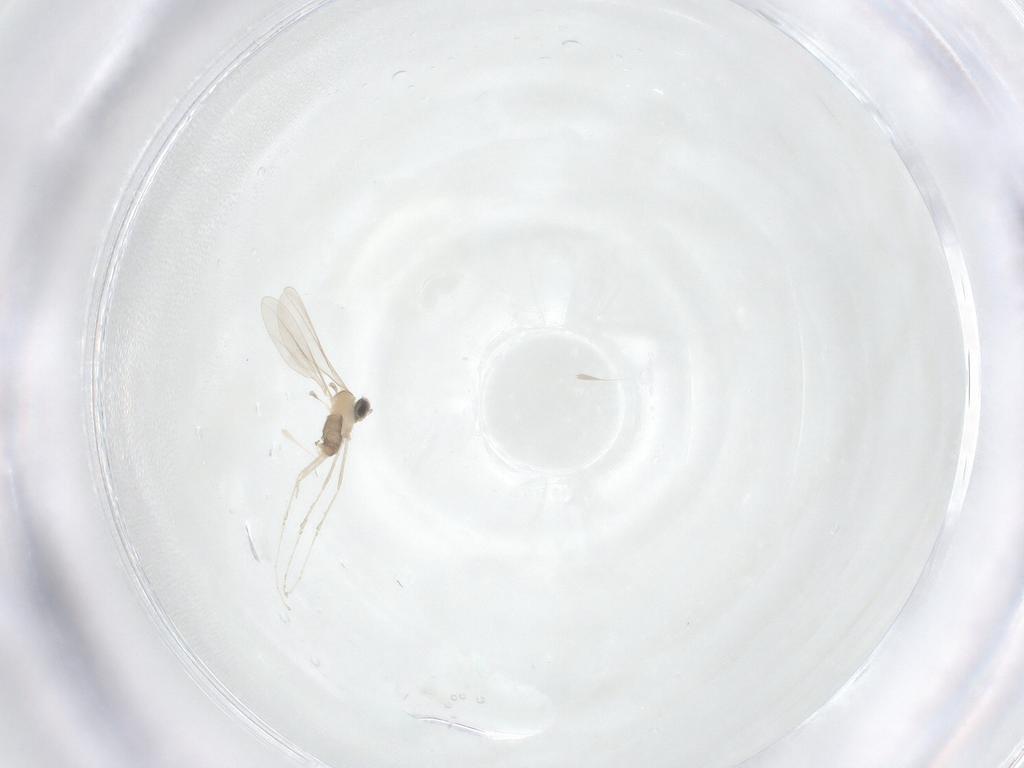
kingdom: Animalia
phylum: Arthropoda
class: Insecta
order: Diptera
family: Cecidomyiidae
